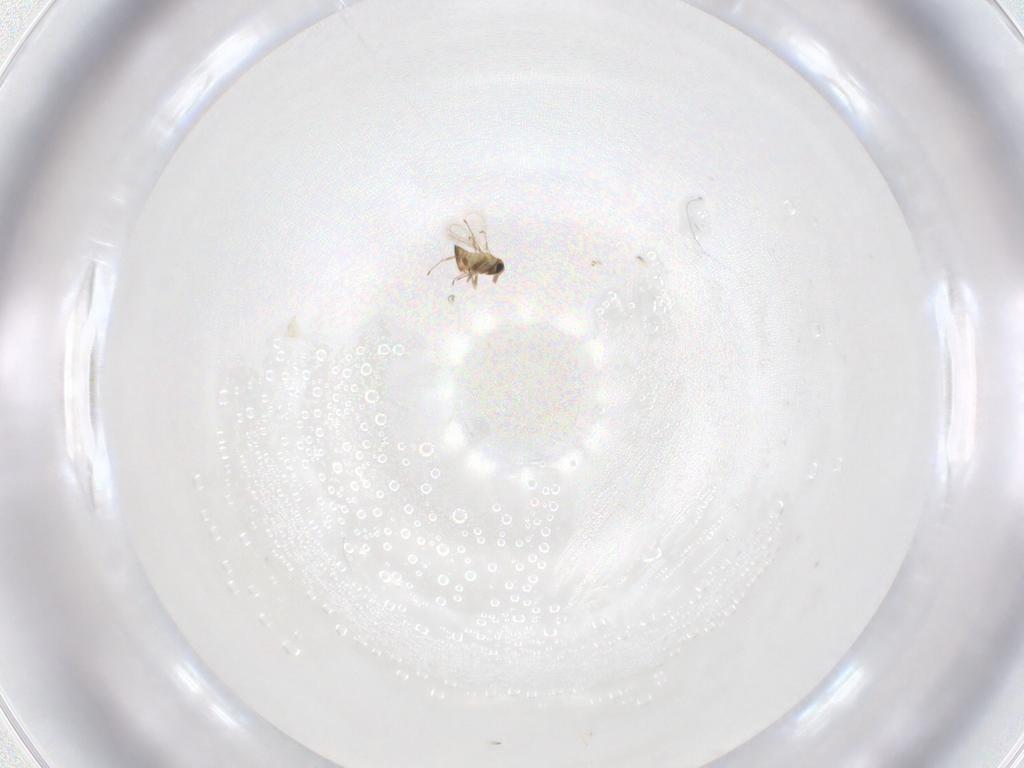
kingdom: Animalia
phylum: Arthropoda
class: Insecta
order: Hymenoptera
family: Trichogrammatidae
